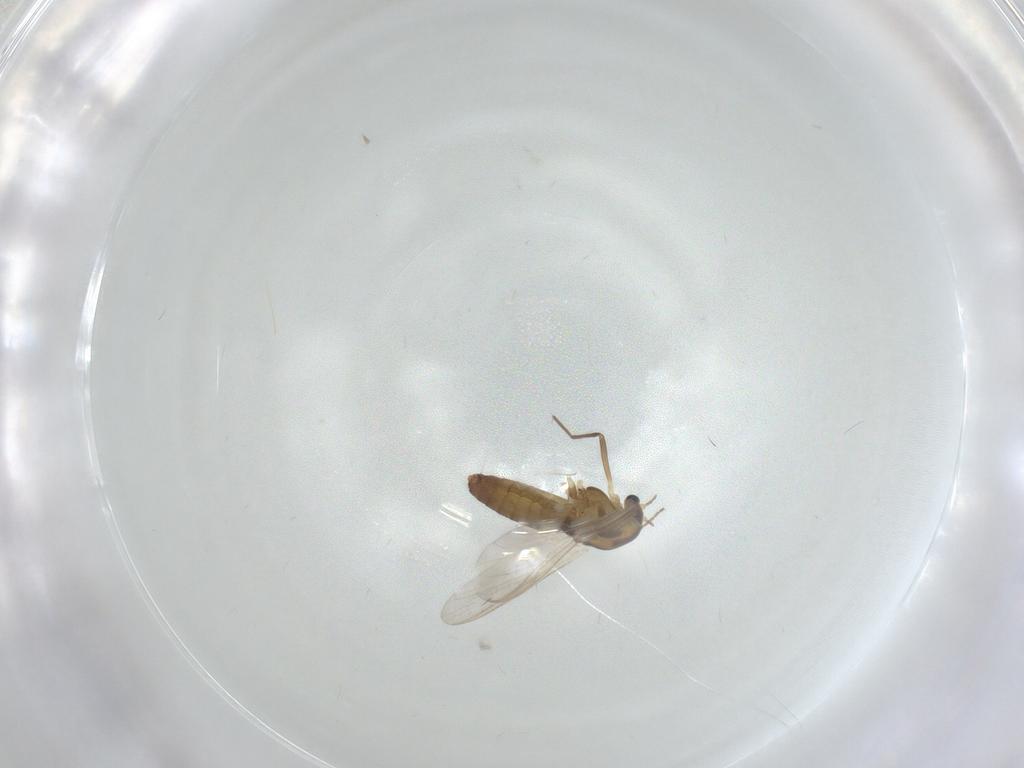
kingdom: Animalia
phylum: Arthropoda
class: Insecta
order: Diptera
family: Chironomidae
